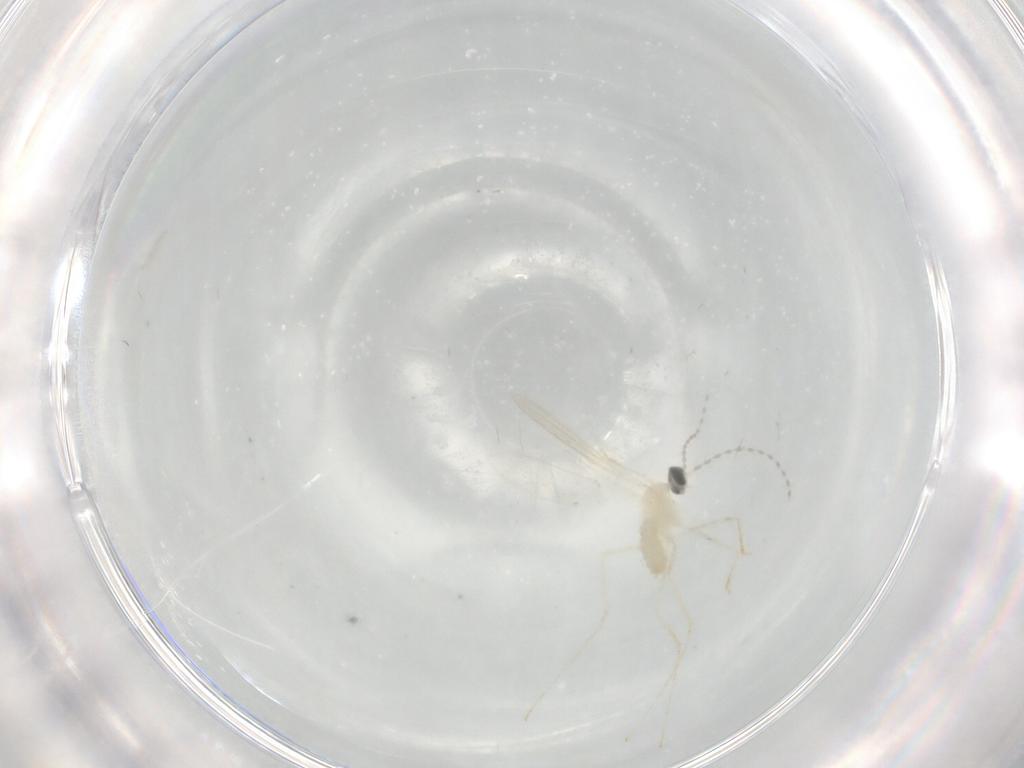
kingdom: Animalia
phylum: Arthropoda
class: Insecta
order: Diptera
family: Cecidomyiidae
